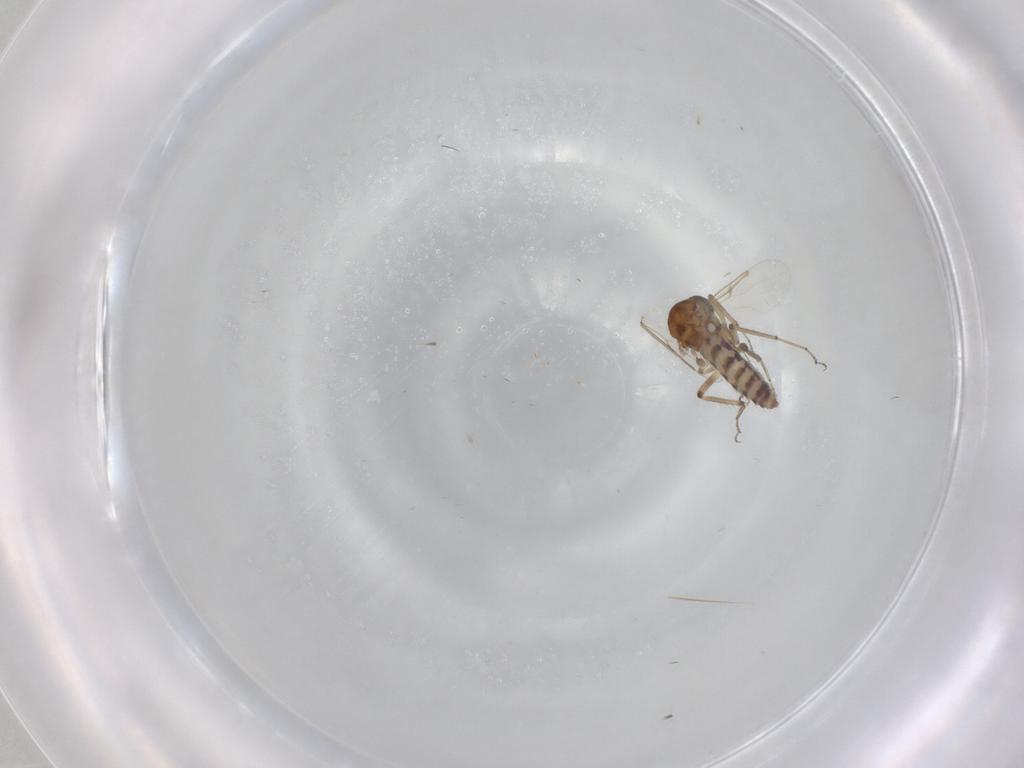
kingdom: Animalia
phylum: Arthropoda
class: Insecta
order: Diptera
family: Ceratopogonidae
